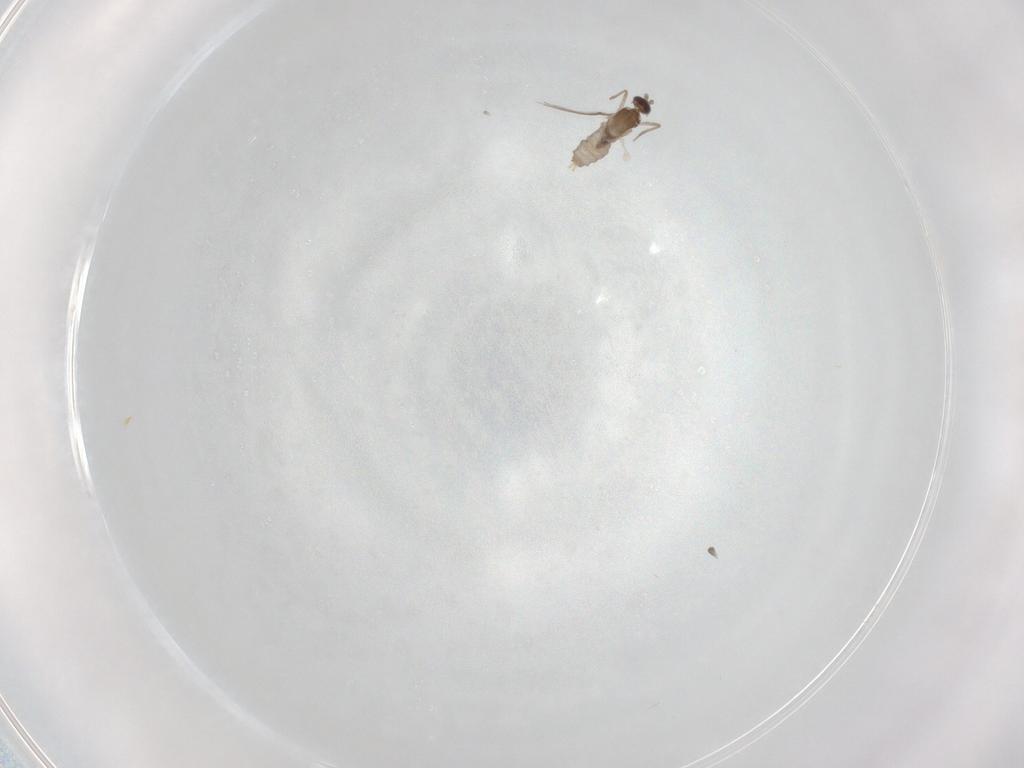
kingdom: Animalia
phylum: Arthropoda
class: Insecta
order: Diptera
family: Cecidomyiidae
